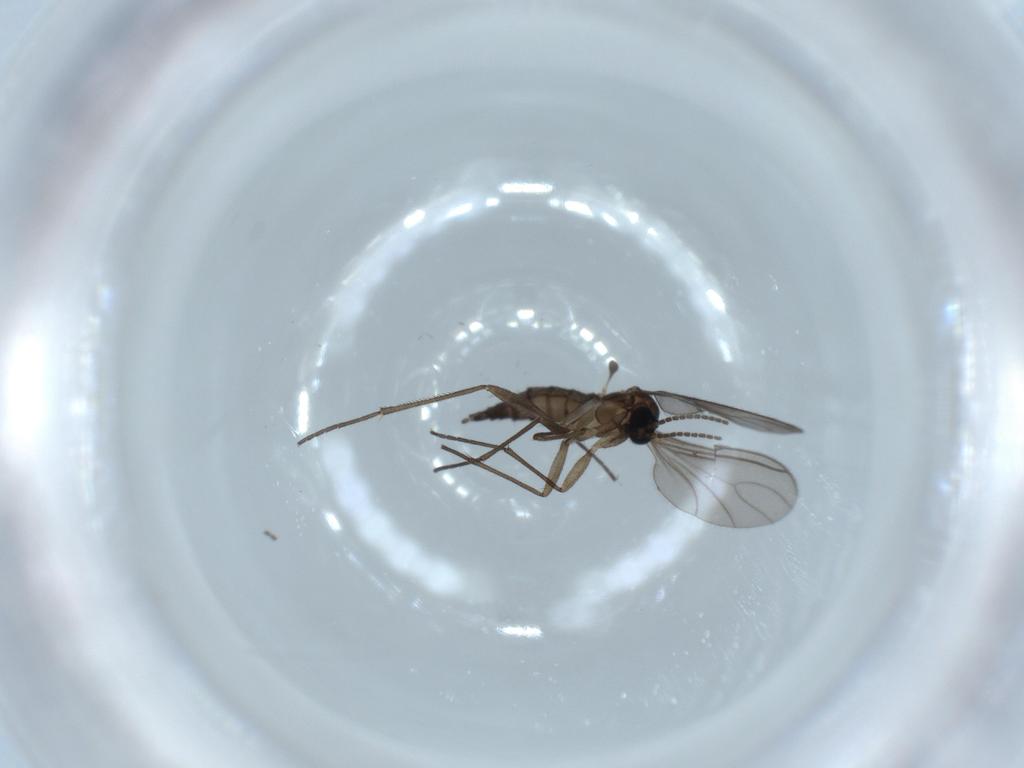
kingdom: Animalia
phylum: Arthropoda
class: Insecta
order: Diptera
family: Sciaridae
